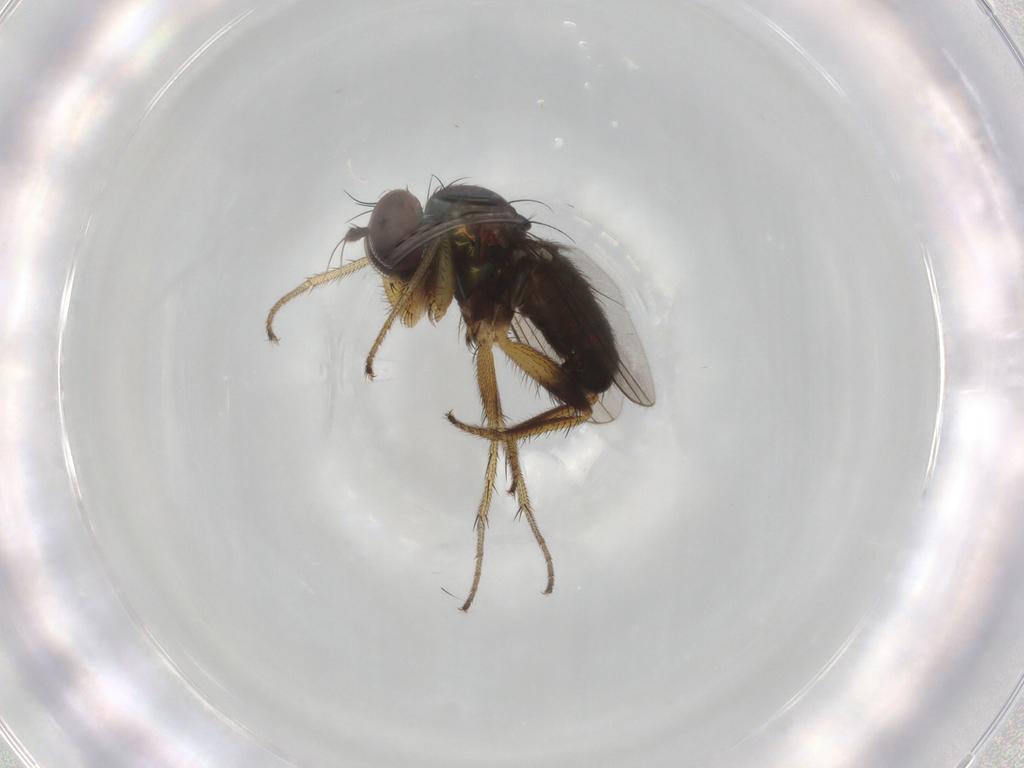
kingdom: Animalia
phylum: Arthropoda
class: Insecta
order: Diptera
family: Dolichopodidae
